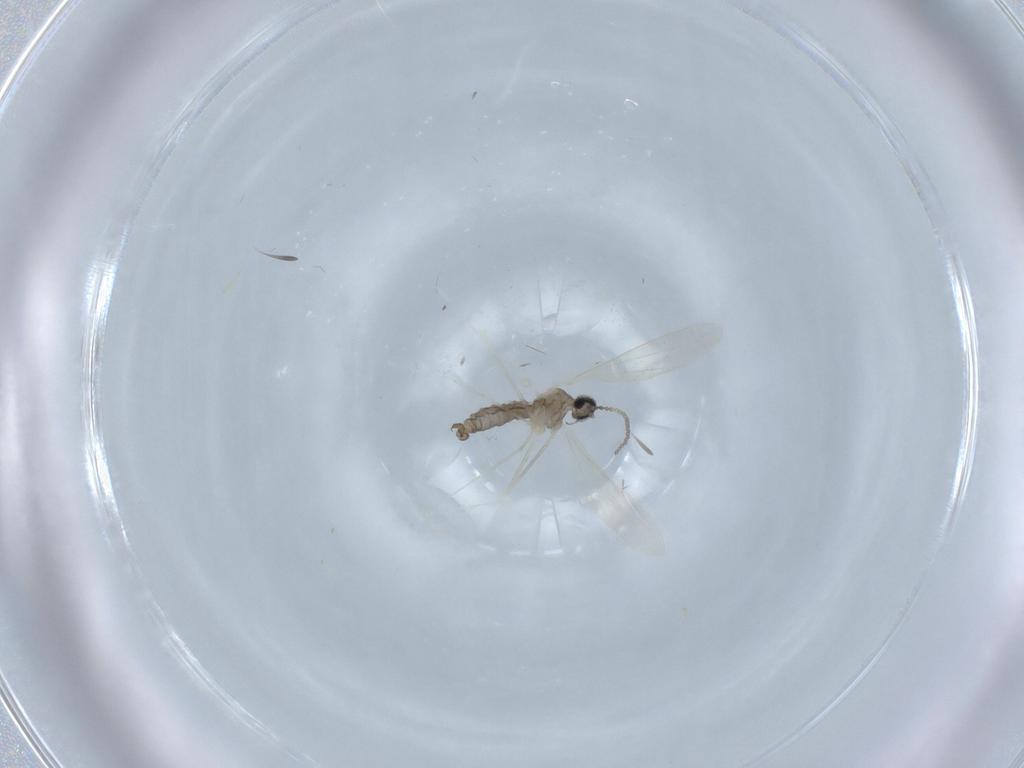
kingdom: Animalia
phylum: Arthropoda
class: Insecta
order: Diptera
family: Cecidomyiidae
